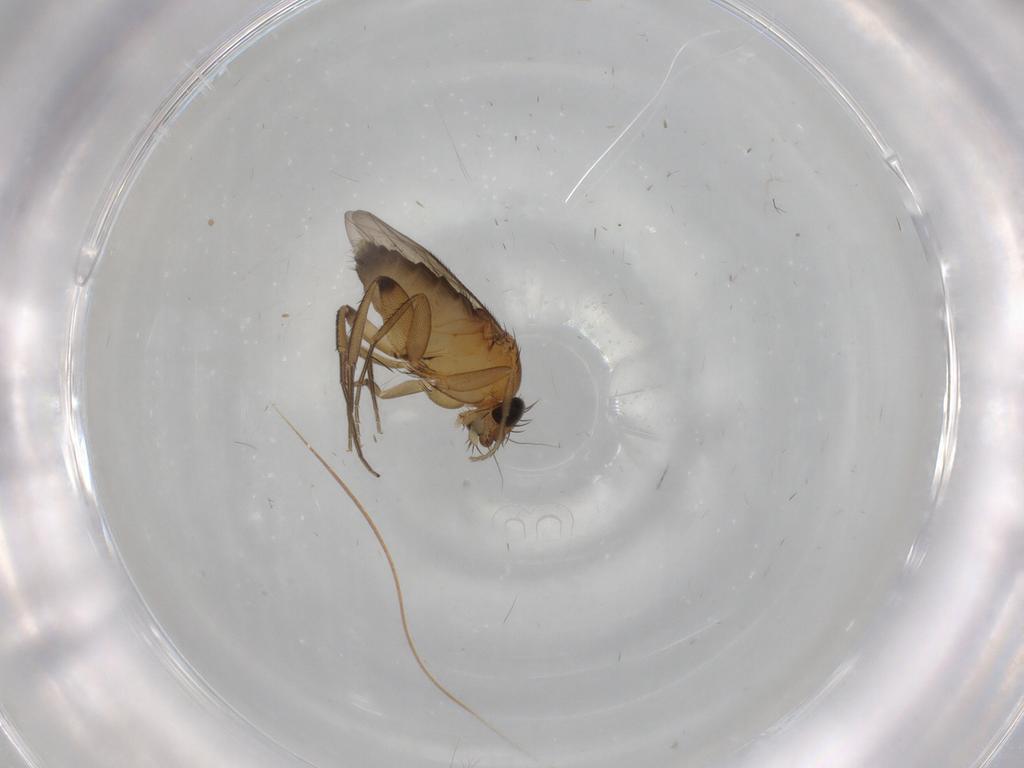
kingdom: Animalia
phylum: Arthropoda
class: Insecta
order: Diptera
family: Phoridae
